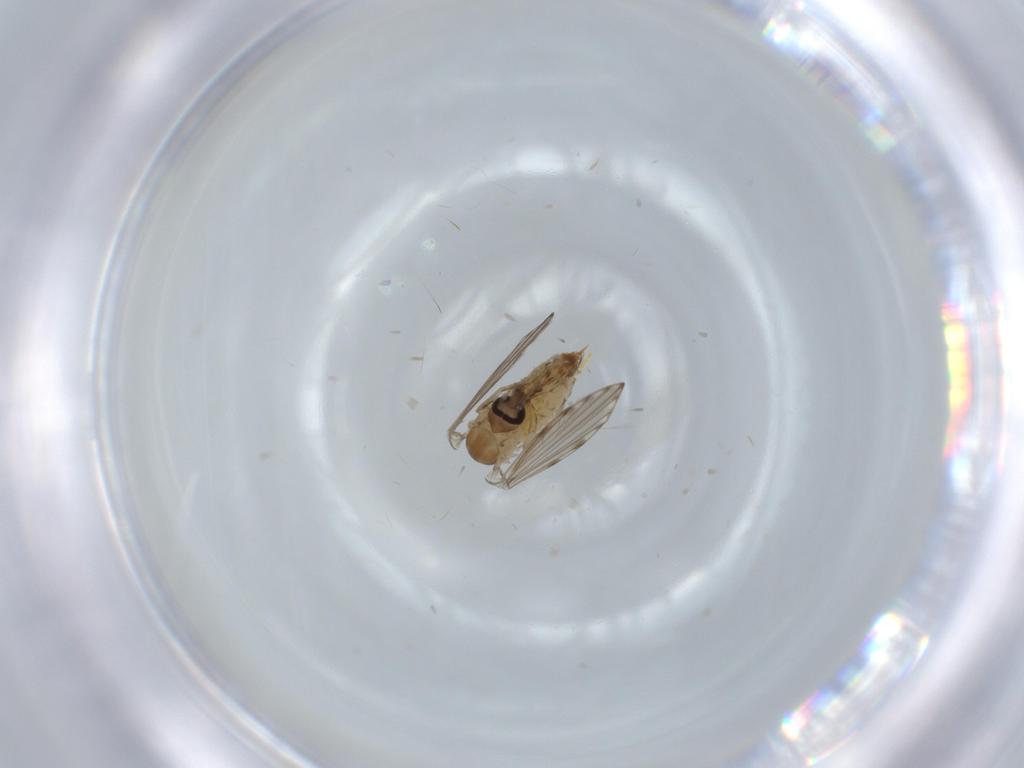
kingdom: Animalia
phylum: Arthropoda
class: Insecta
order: Diptera
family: Psychodidae
